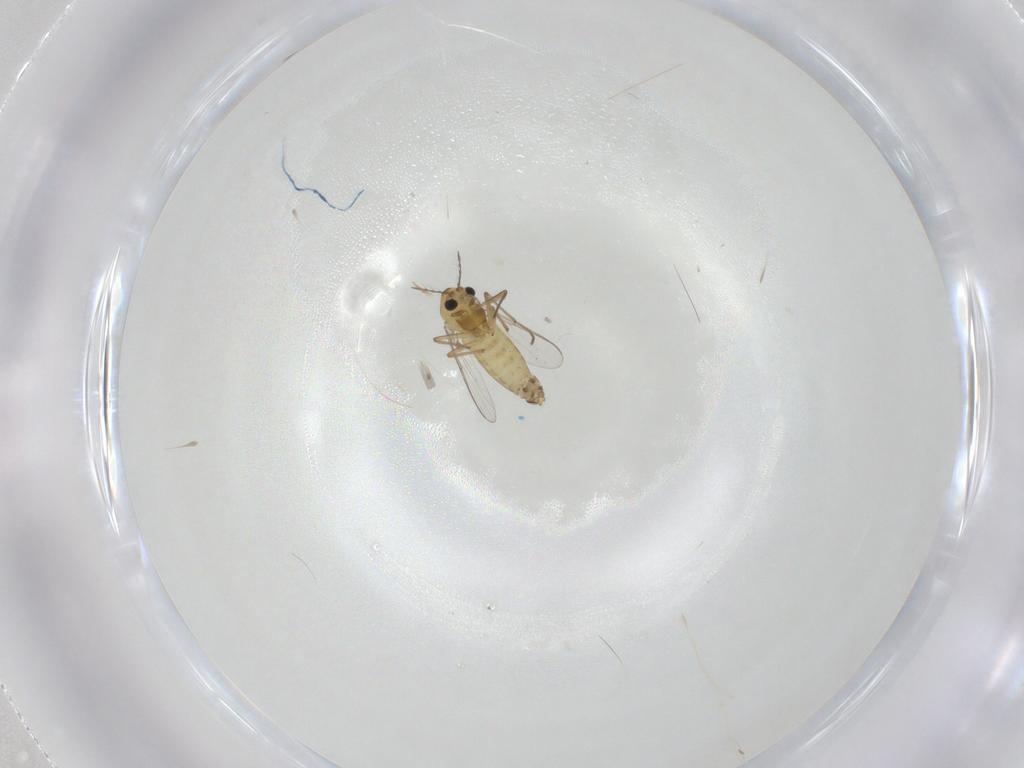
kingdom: Animalia
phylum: Arthropoda
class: Insecta
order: Diptera
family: Chironomidae
